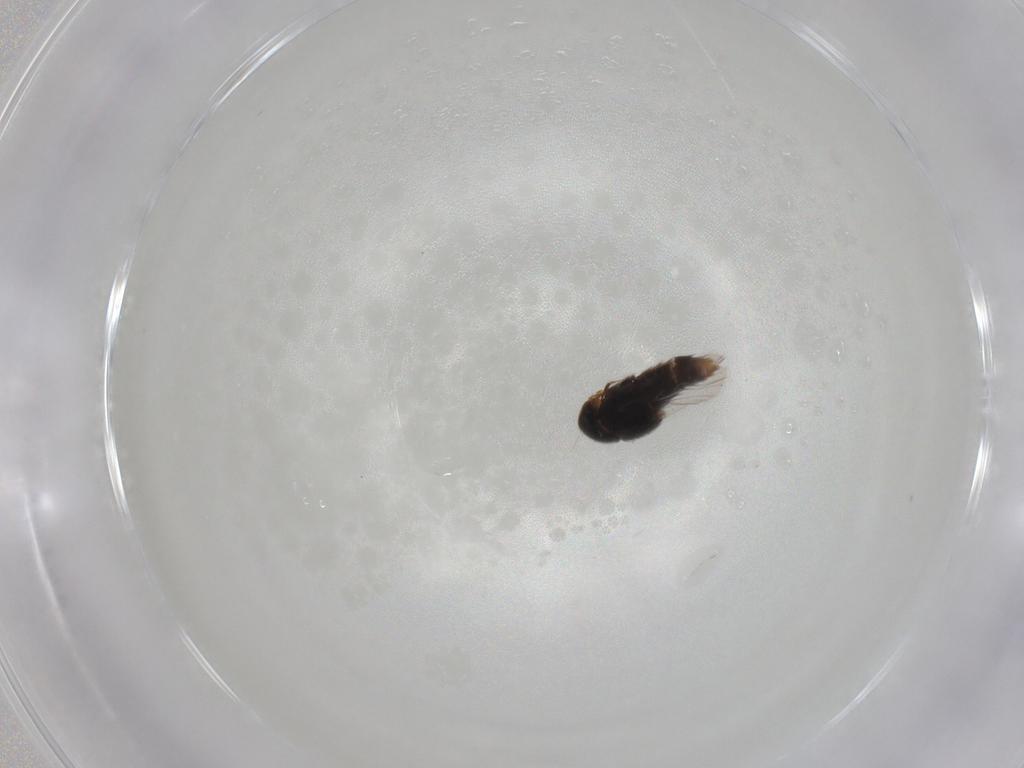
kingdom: Animalia
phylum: Arthropoda
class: Insecta
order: Coleoptera
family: Staphylinidae
